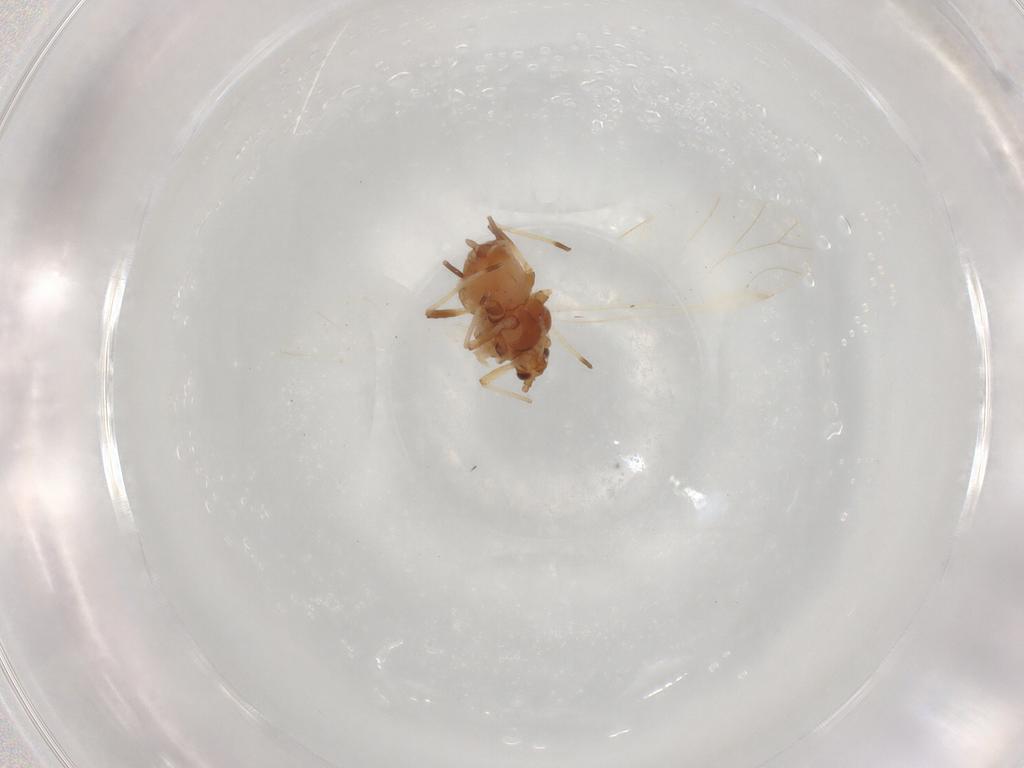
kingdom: Animalia
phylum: Arthropoda
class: Insecta
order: Hemiptera
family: Aphididae
